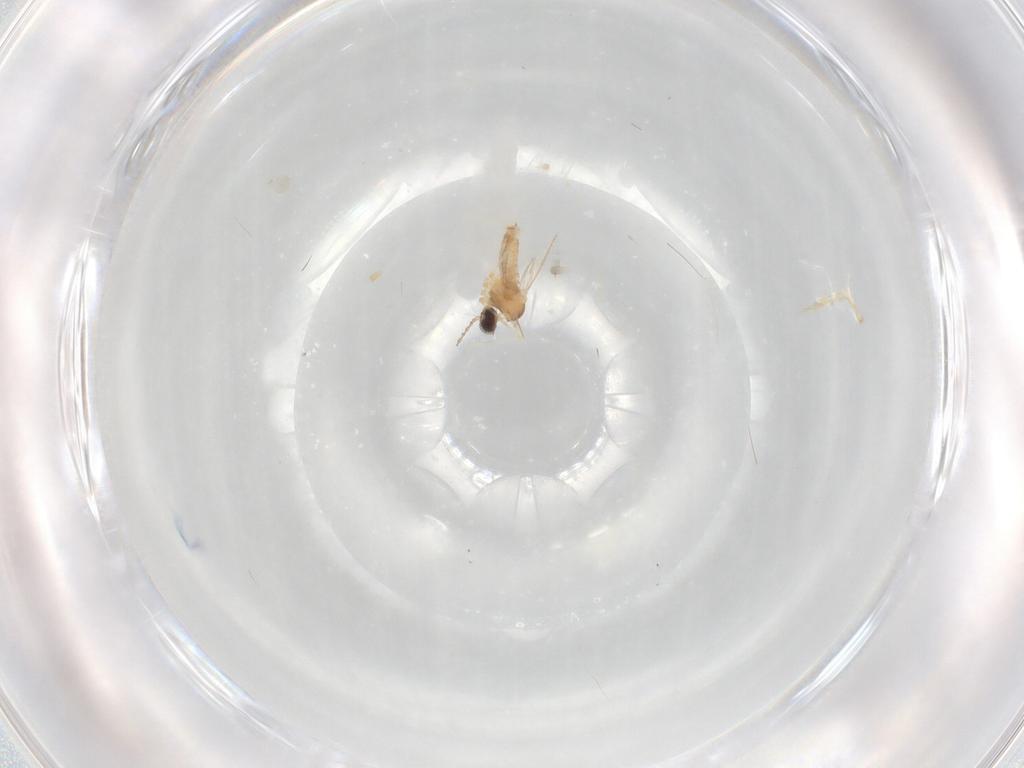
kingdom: Animalia
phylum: Arthropoda
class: Insecta
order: Diptera
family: Cecidomyiidae
